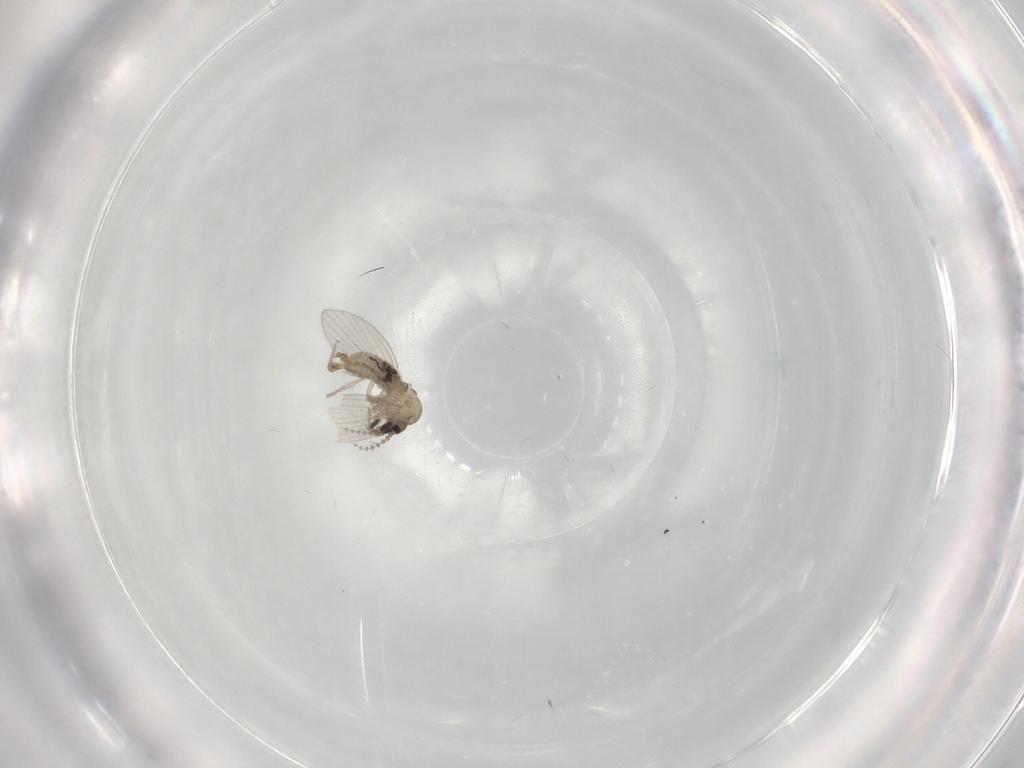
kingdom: Animalia
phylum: Arthropoda
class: Insecta
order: Diptera
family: Psychodidae
